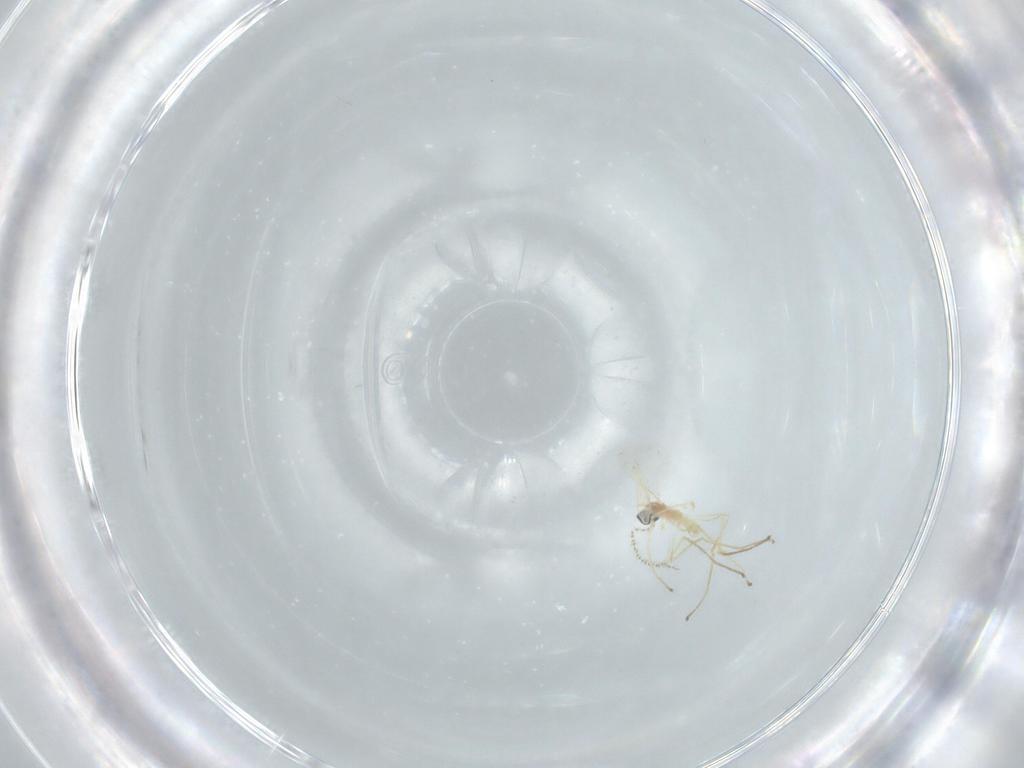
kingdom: Animalia
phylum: Arthropoda
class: Insecta
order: Diptera
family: Cecidomyiidae
